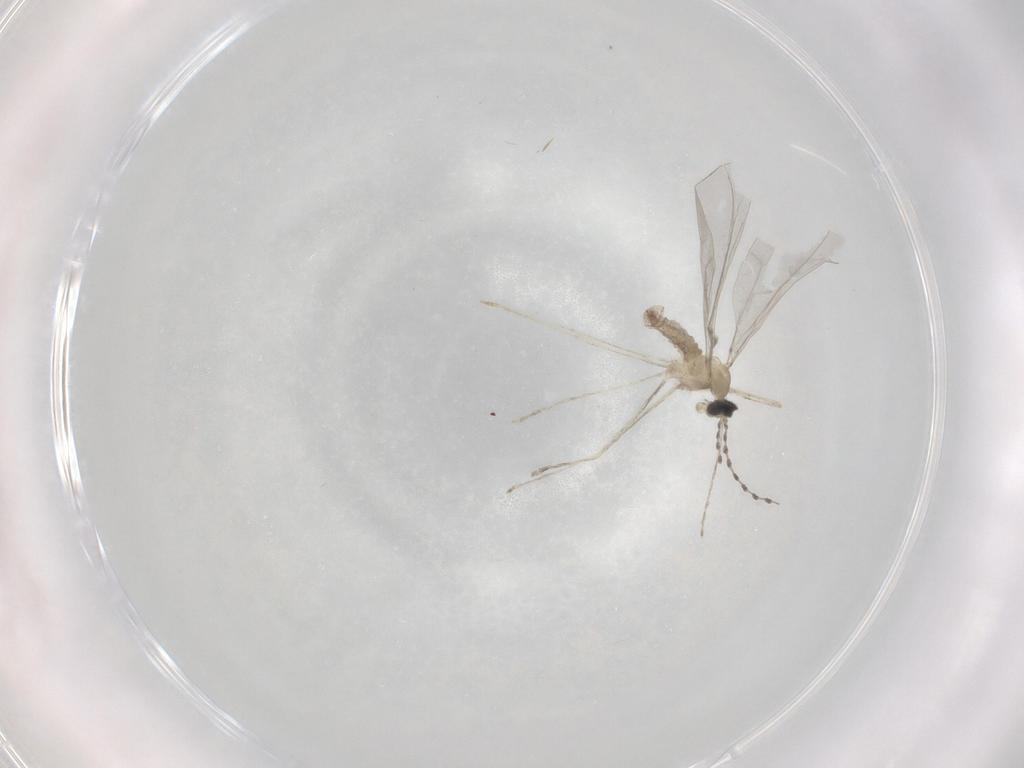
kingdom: Animalia
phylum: Arthropoda
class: Insecta
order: Diptera
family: Cecidomyiidae
